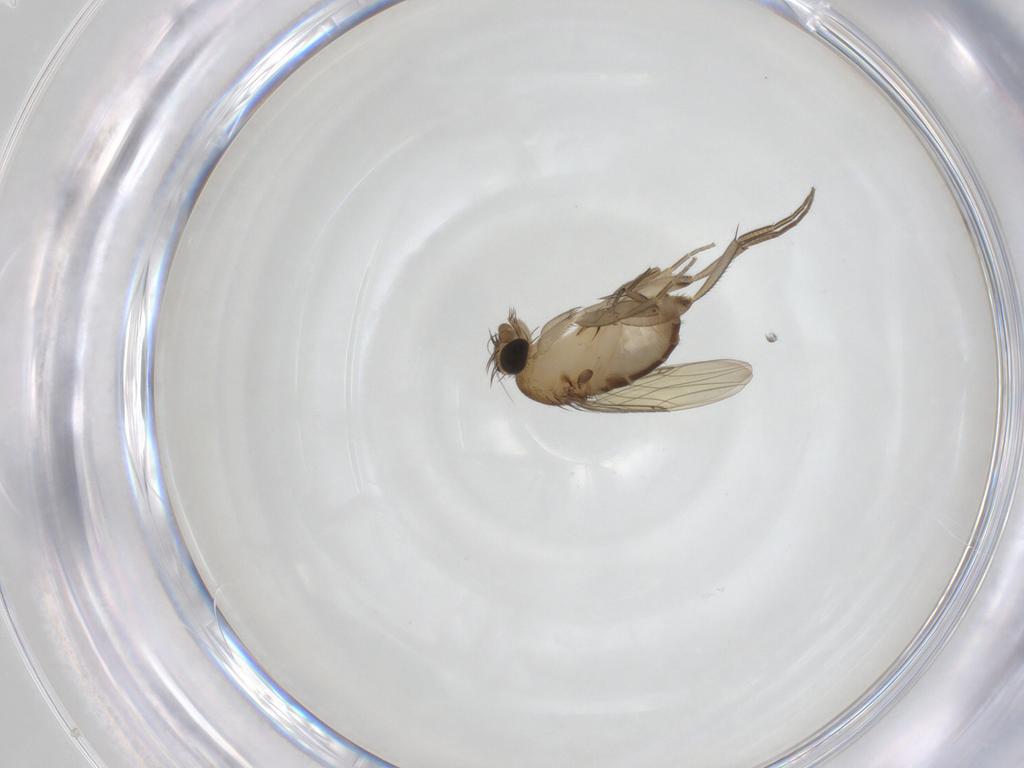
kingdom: Animalia
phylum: Arthropoda
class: Insecta
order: Diptera
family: Phoridae
